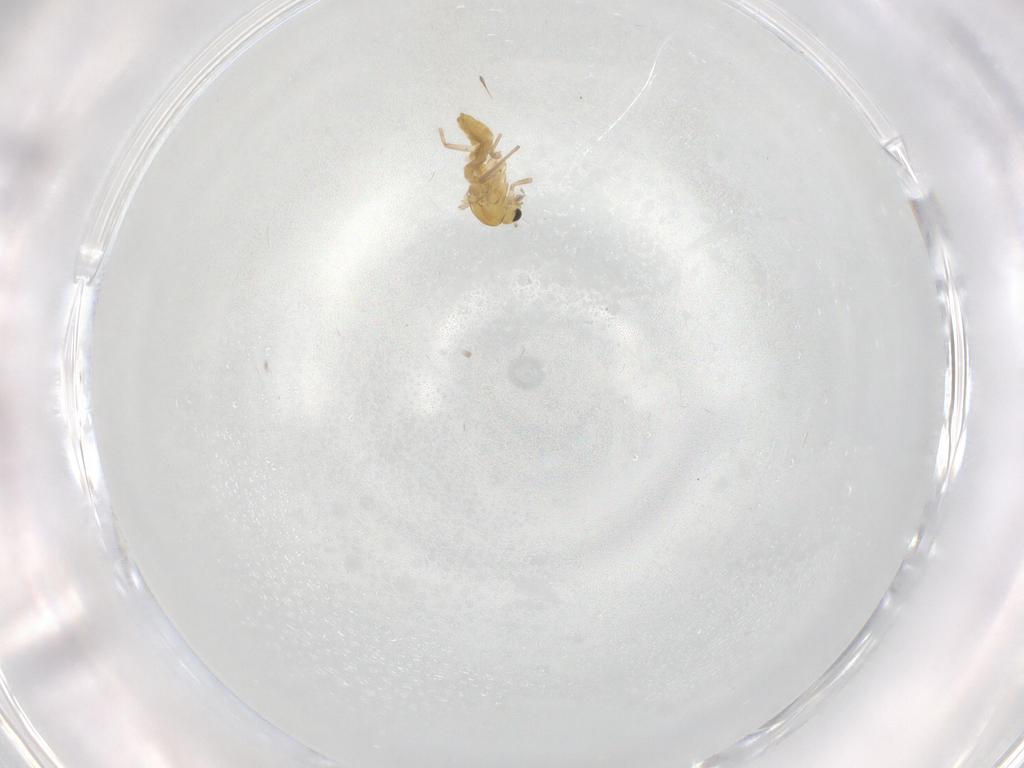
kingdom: Animalia
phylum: Arthropoda
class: Insecta
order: Diptera
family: Chironomidae
